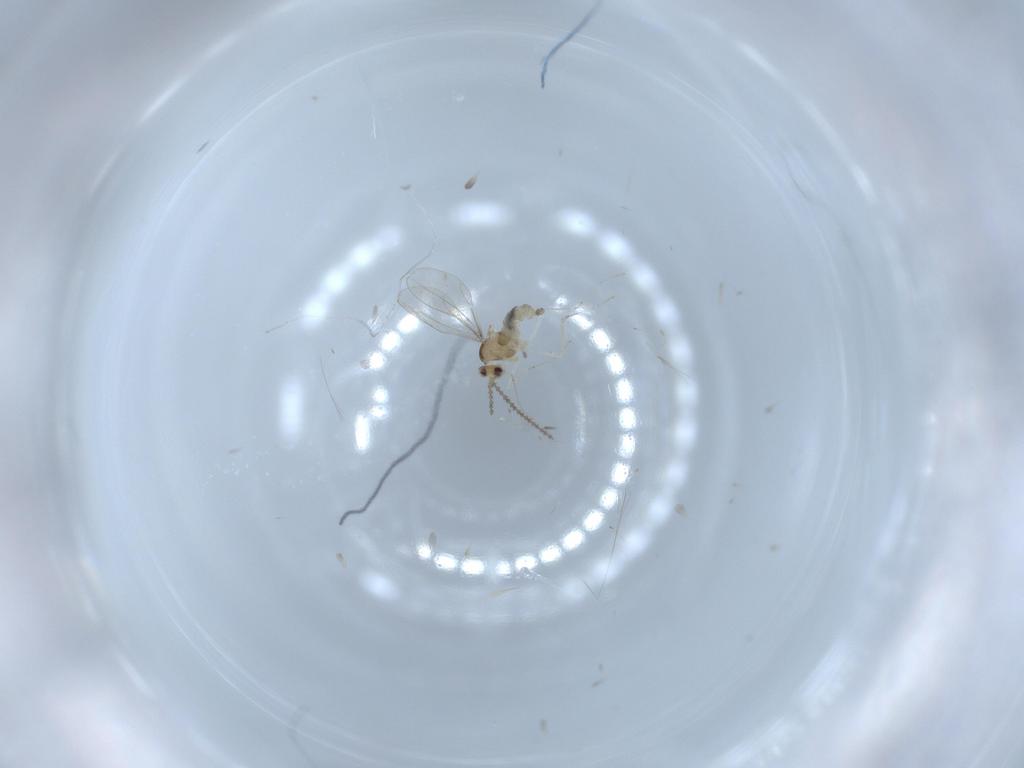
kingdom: Animalia
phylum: Arthropoda
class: Insecta
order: Diptera
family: Cecidomyiidae
